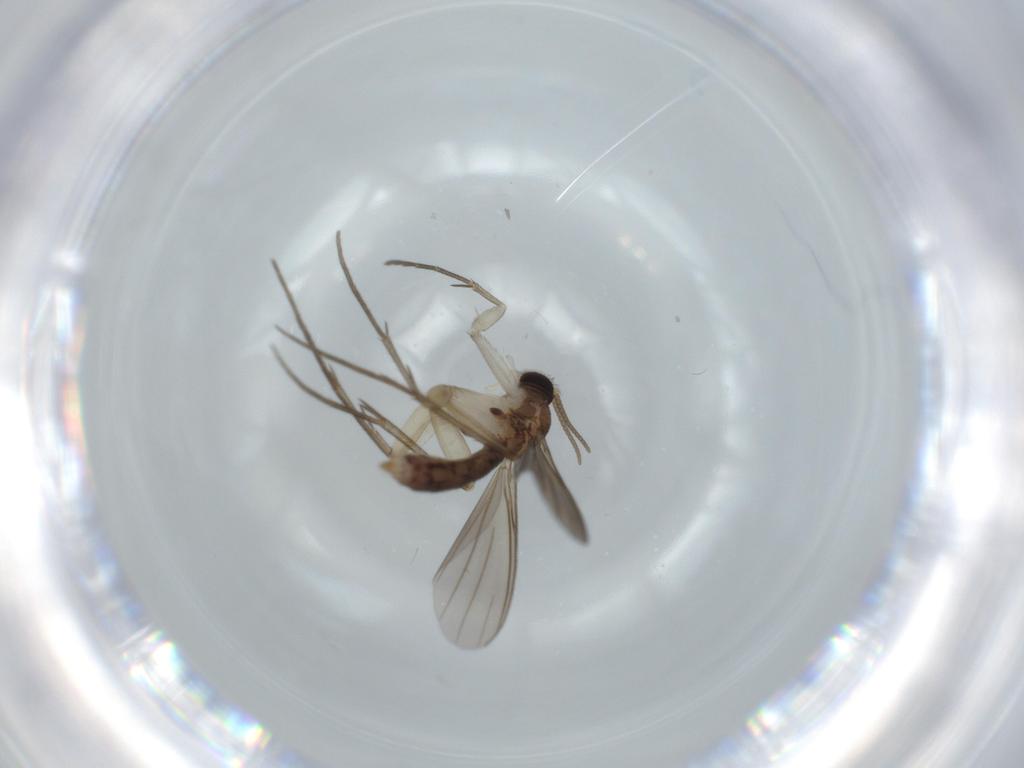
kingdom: Animalia
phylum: Arthropoda
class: Insecta
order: Diptera
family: Mycetophilidae
